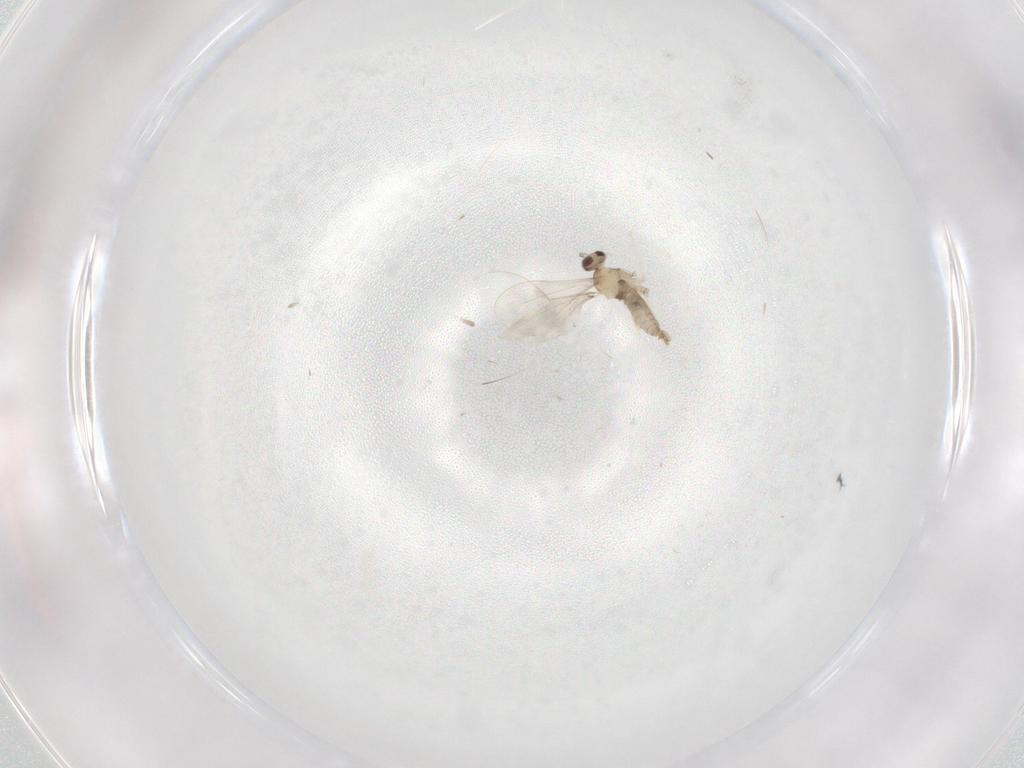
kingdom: Animalia
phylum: Arthropoda
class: Insecta
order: Diptera
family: Cecidomyiidae
